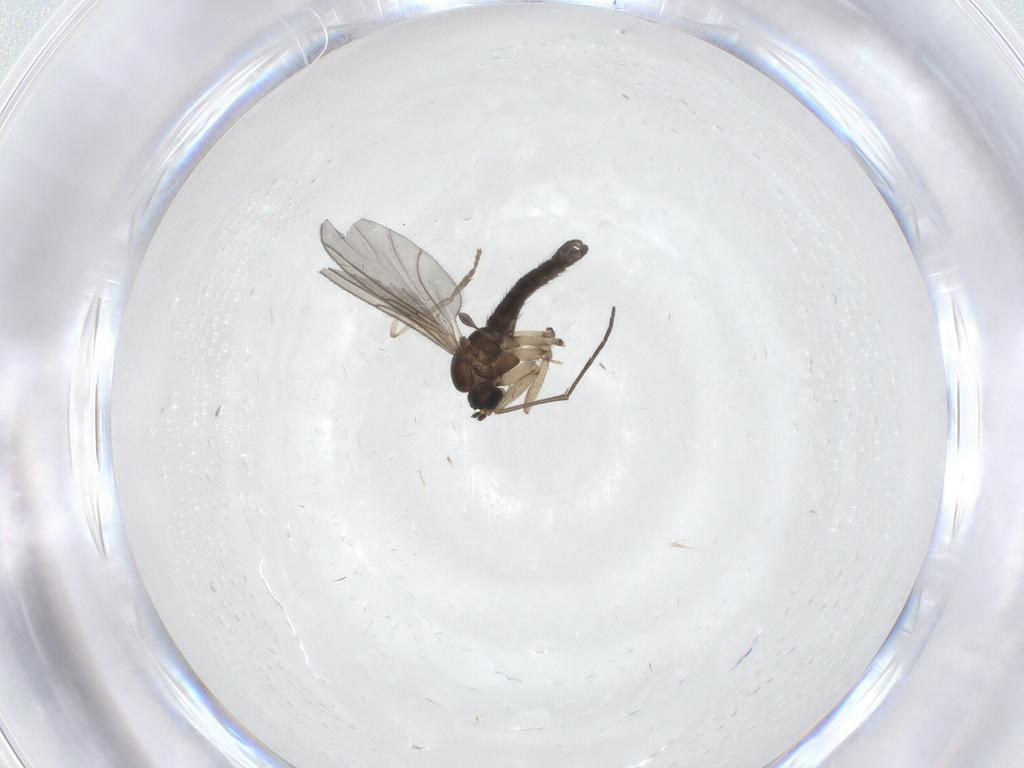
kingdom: Animalia
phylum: Arthropoda
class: Insecta
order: Diptera
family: Psychodidae
